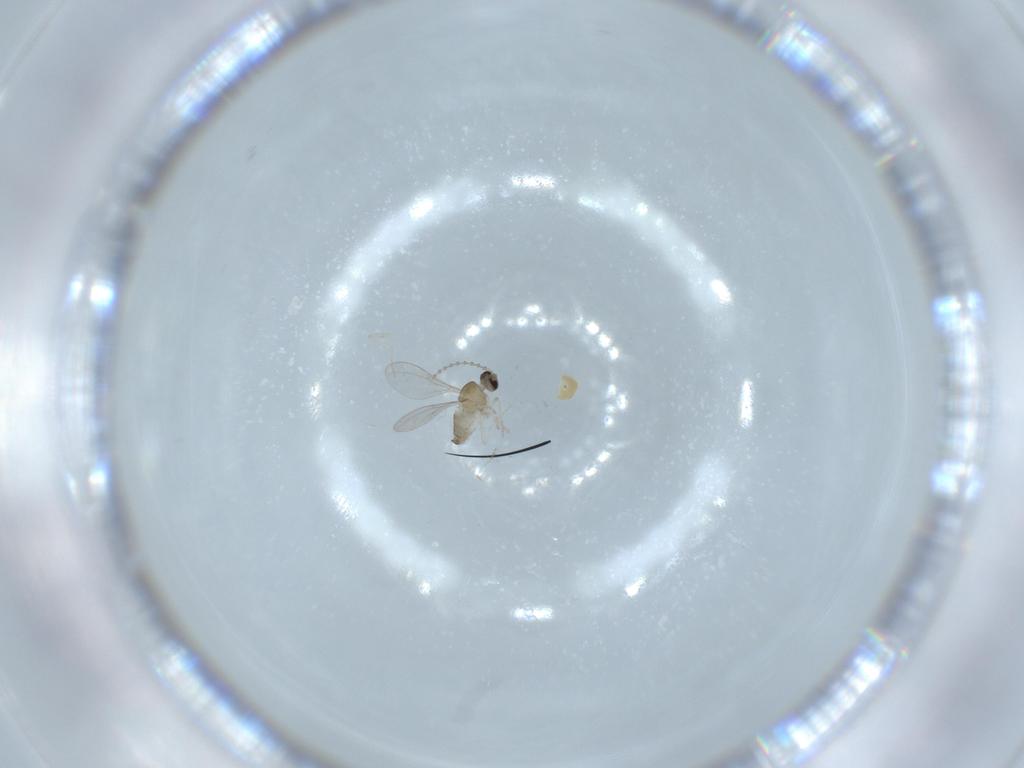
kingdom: Animalia
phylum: Arthropoda
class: Insecta
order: Diptera
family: Cecidomyiidae
